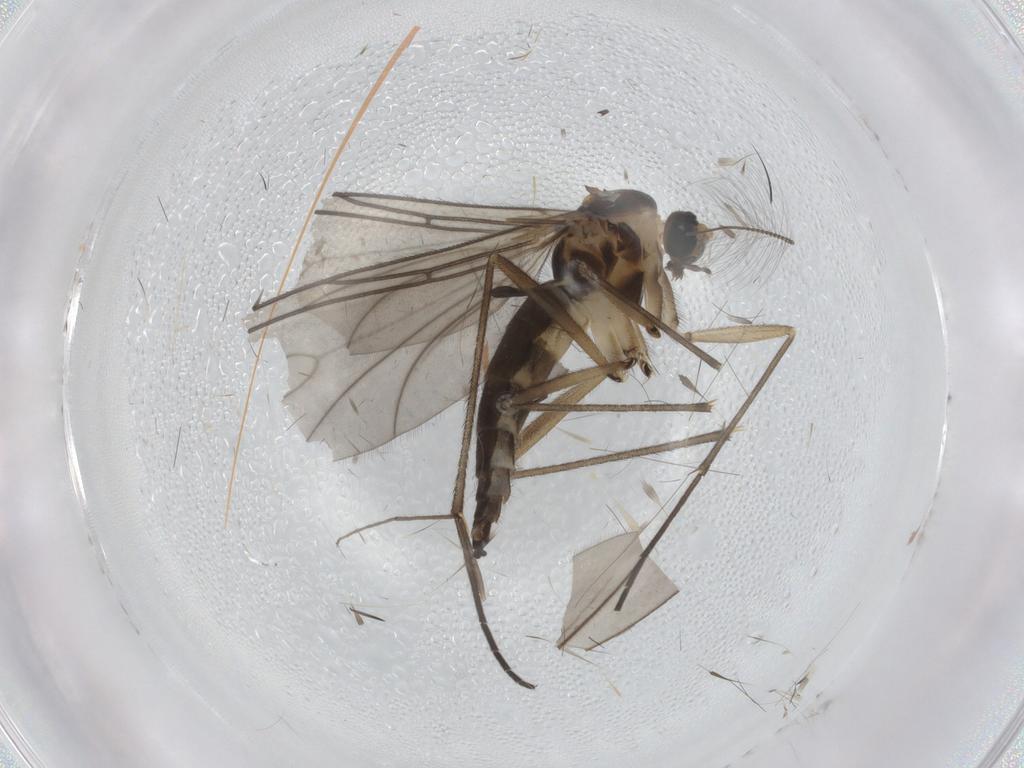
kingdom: Animalia
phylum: Arthropoda
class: Insecta
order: Diptera
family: Sciaridae
